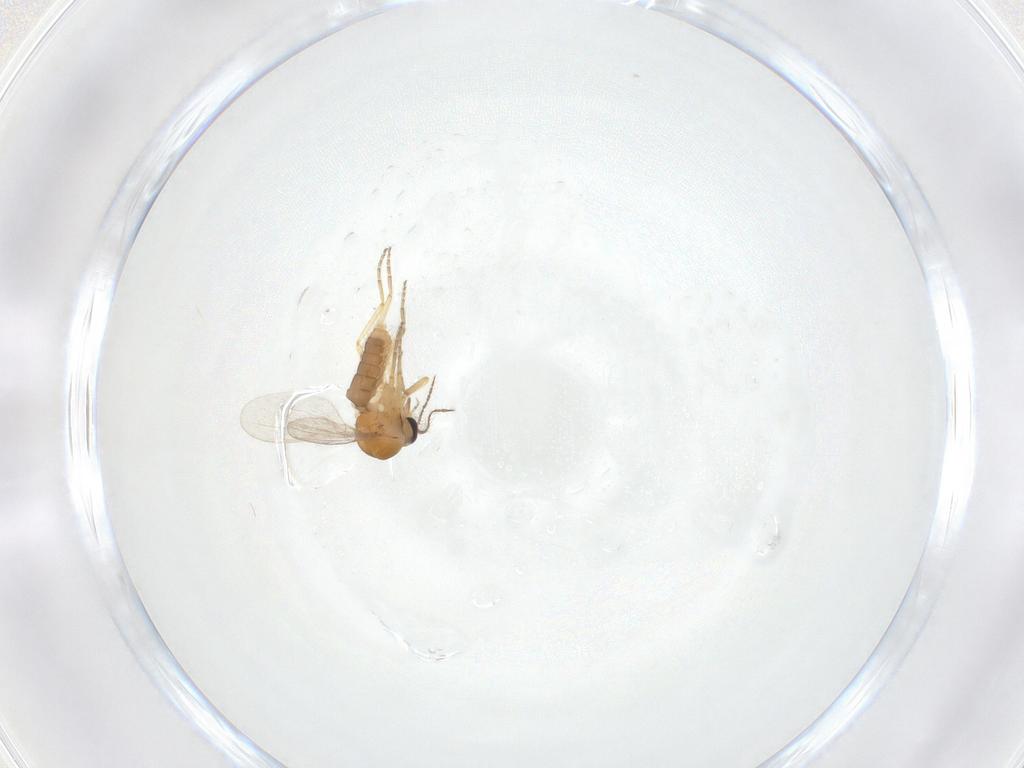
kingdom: Animalia
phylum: Arthropoda
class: Insecta
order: Diptera
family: Ceratopogonidae
